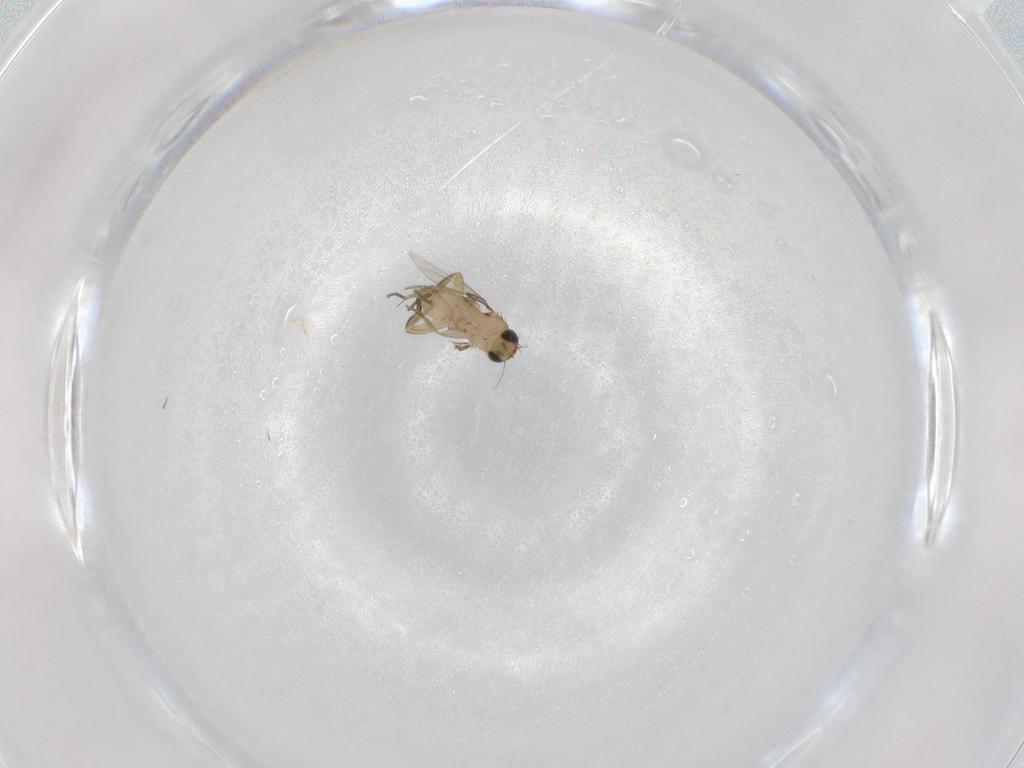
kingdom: Animalia
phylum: Arthropoda
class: Insecta
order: Diptera
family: Phoridae
